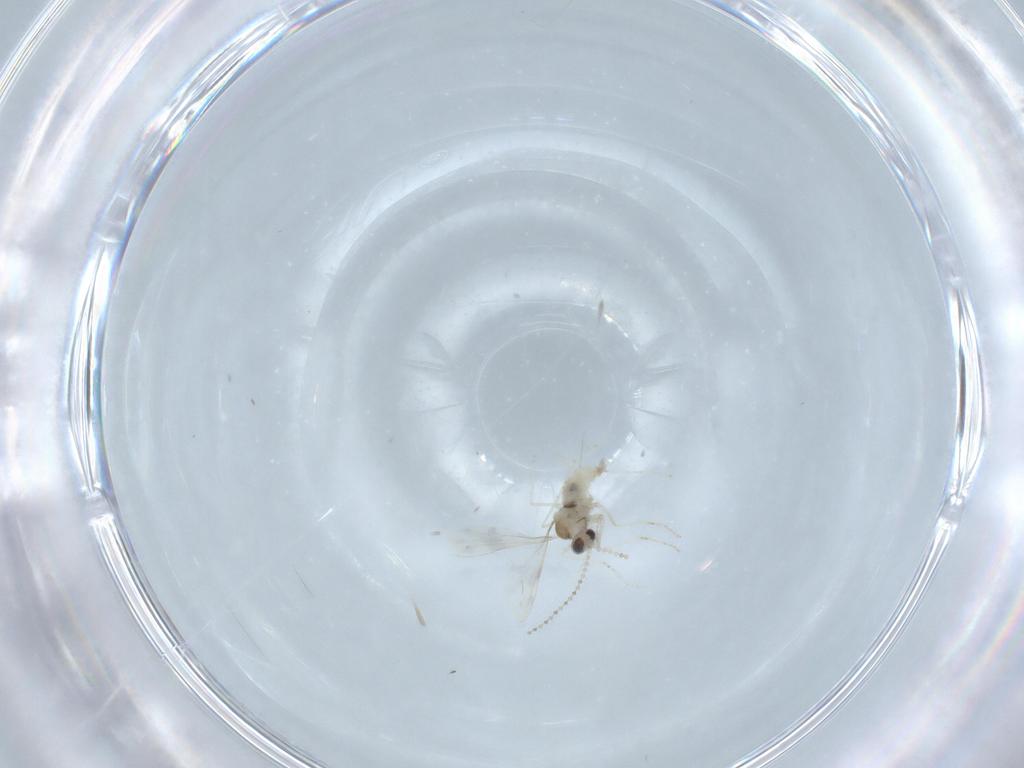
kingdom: Animalia
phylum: Arthropoda
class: Insecta
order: Diptera
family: Cecidomyiidae
